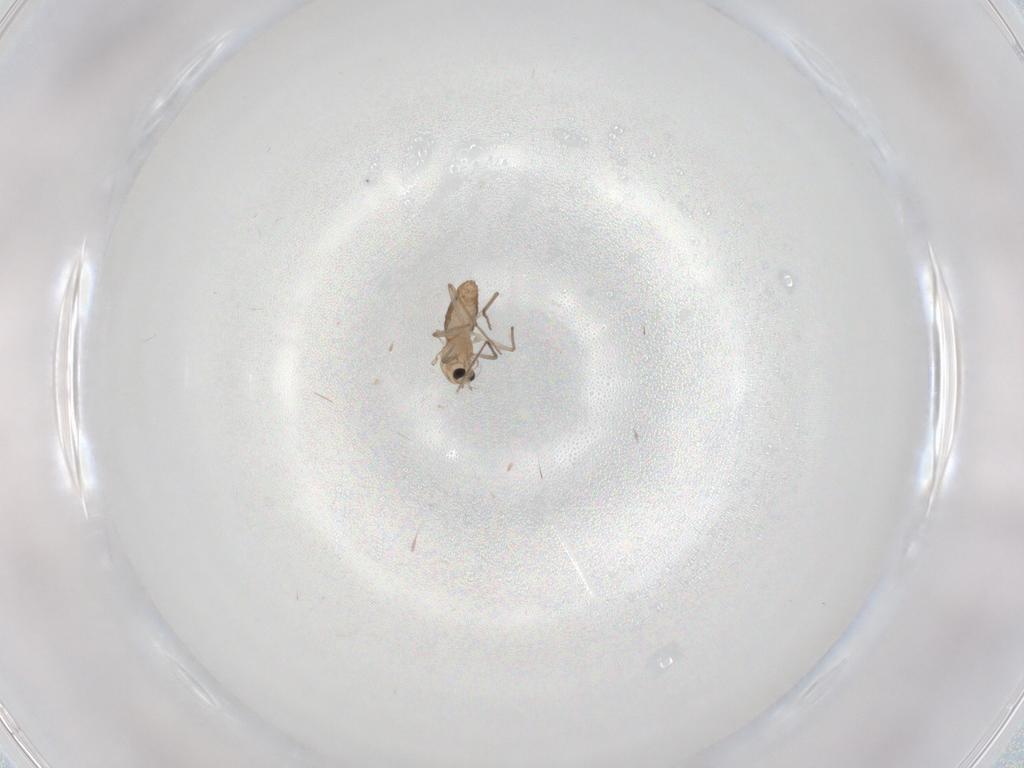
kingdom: Animalia
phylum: Arthropoda
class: Insecta
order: Diptera
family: Chironomidae
